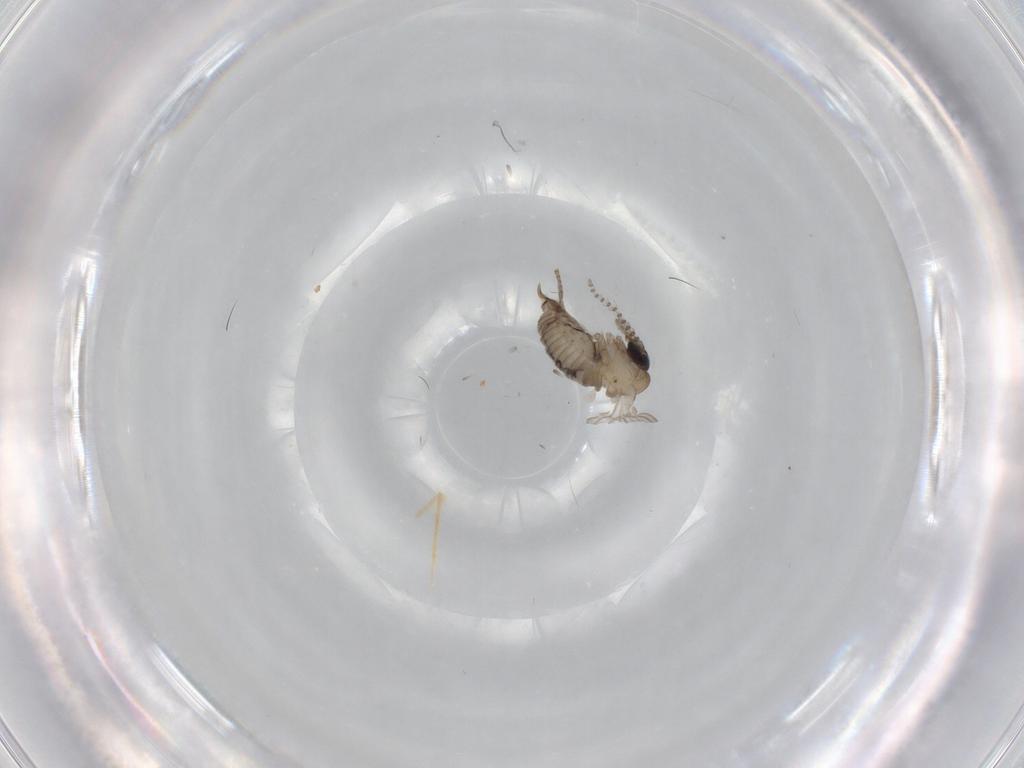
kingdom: Animalia
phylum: Arthropoda
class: Insecta
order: Diptera
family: Psychodidae
